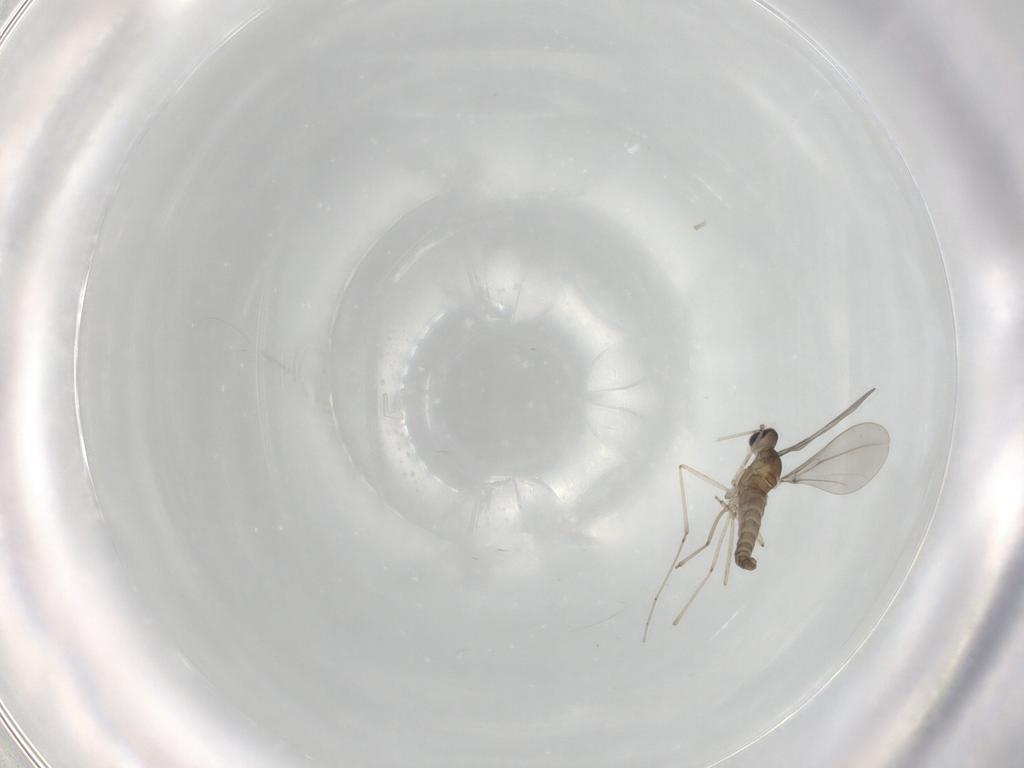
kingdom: Animalia
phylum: Arthropoda
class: Insecta
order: Diptera
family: Cecidomyiidae
